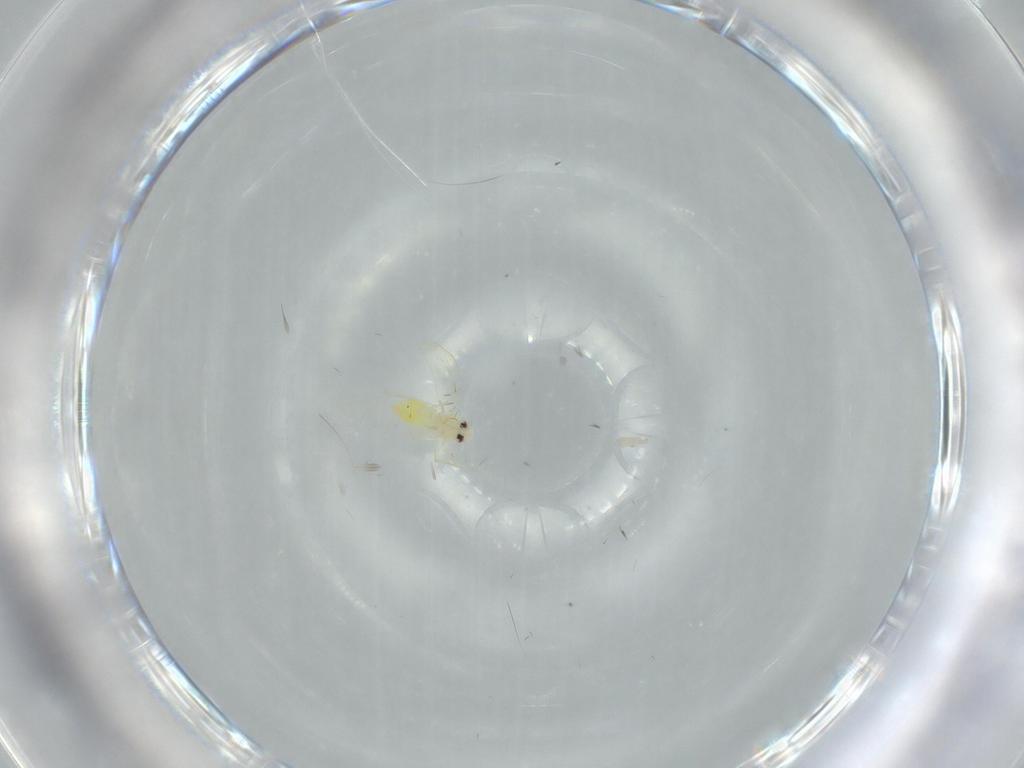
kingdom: Animalia
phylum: Arthropoda
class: Insecta
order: Hemiptera
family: Aleyrodidae
